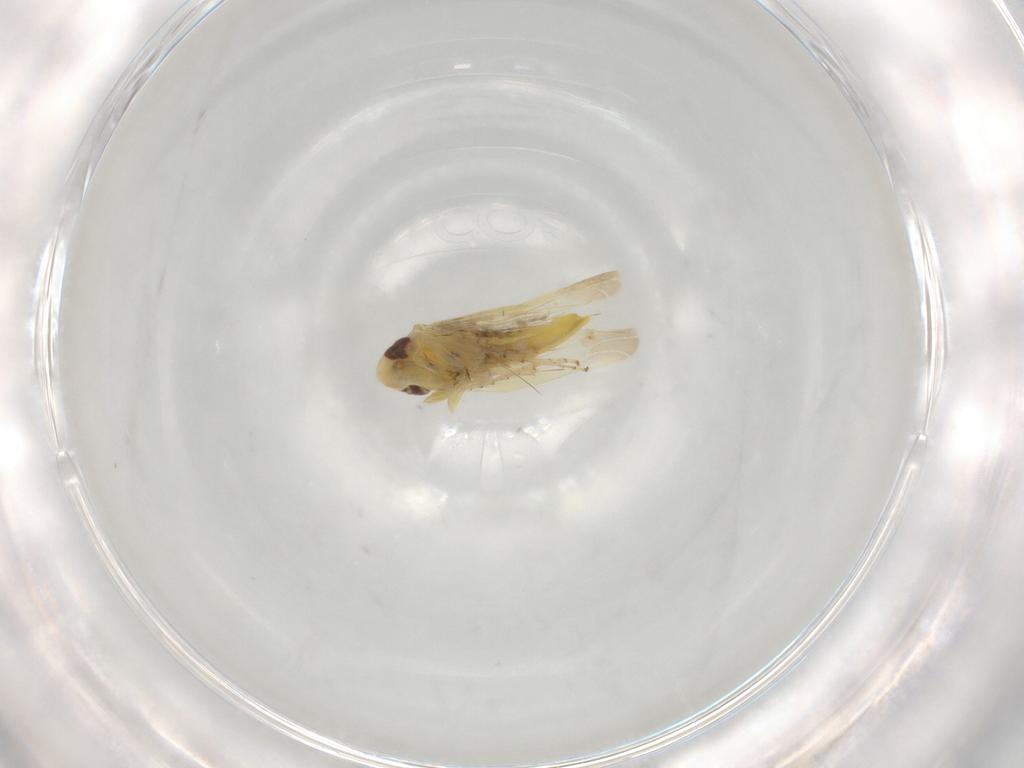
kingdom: Animalia
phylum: Arthropoda
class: Insecta
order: Hemiptera
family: Cicadellidae
